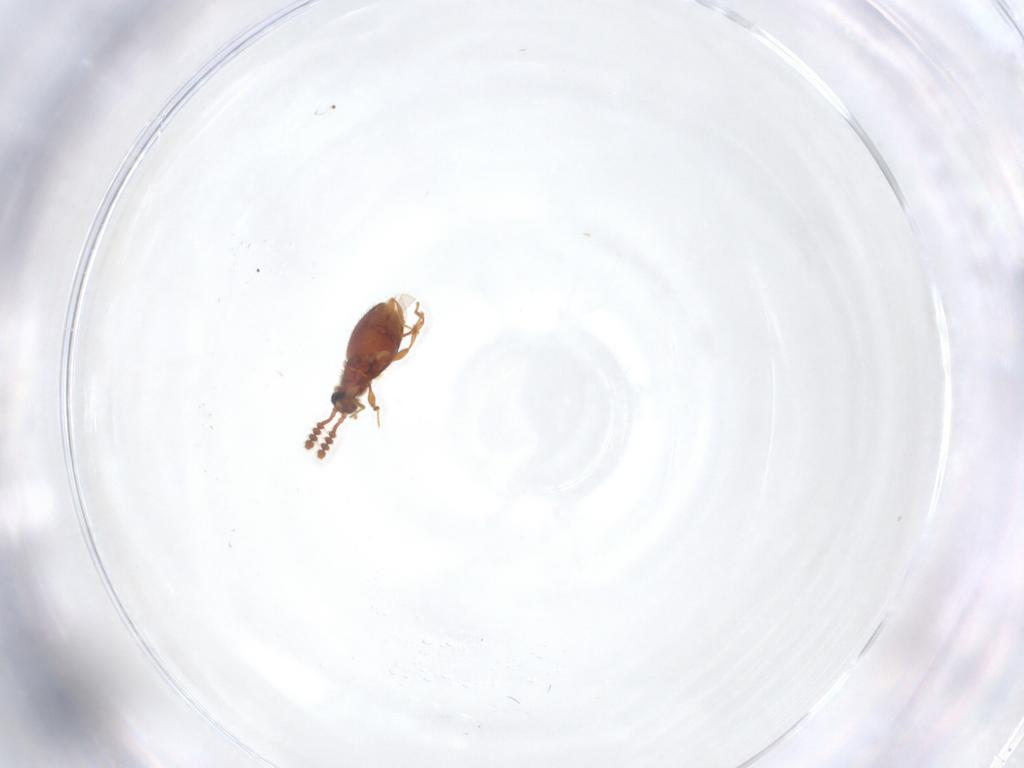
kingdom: Animalia
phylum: Arthropoda
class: Insecta
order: Coleoptera
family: Staphylinidae
